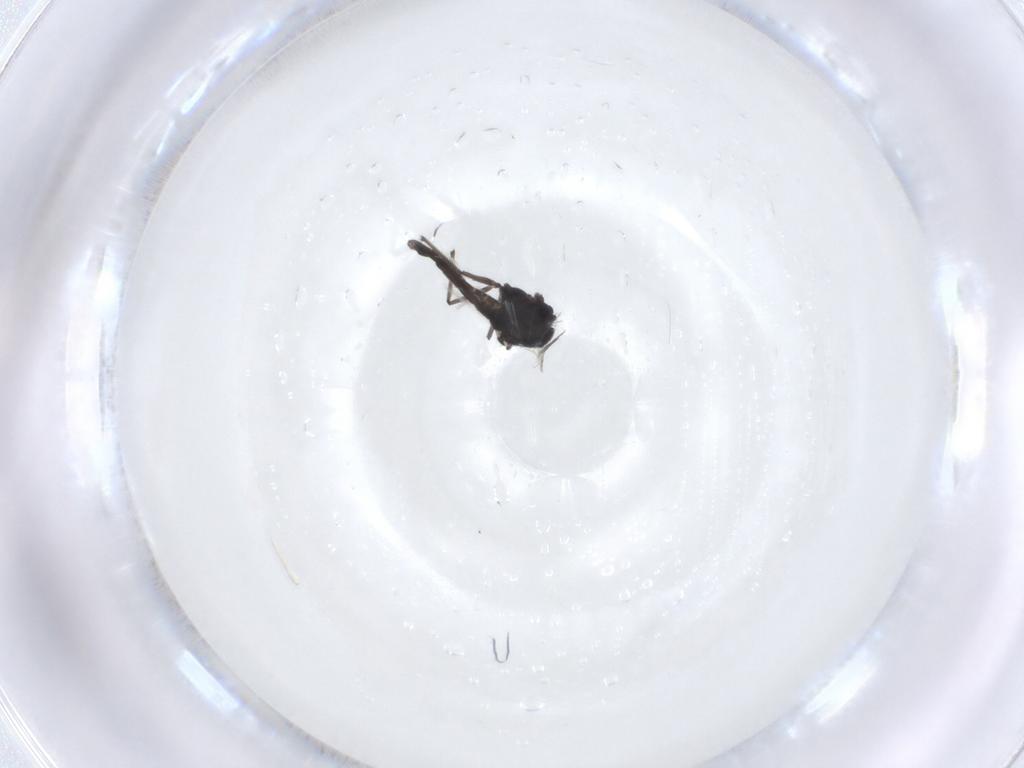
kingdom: Animalia
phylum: Arthropoda
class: Insecta
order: Diptera
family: Chironomidae
